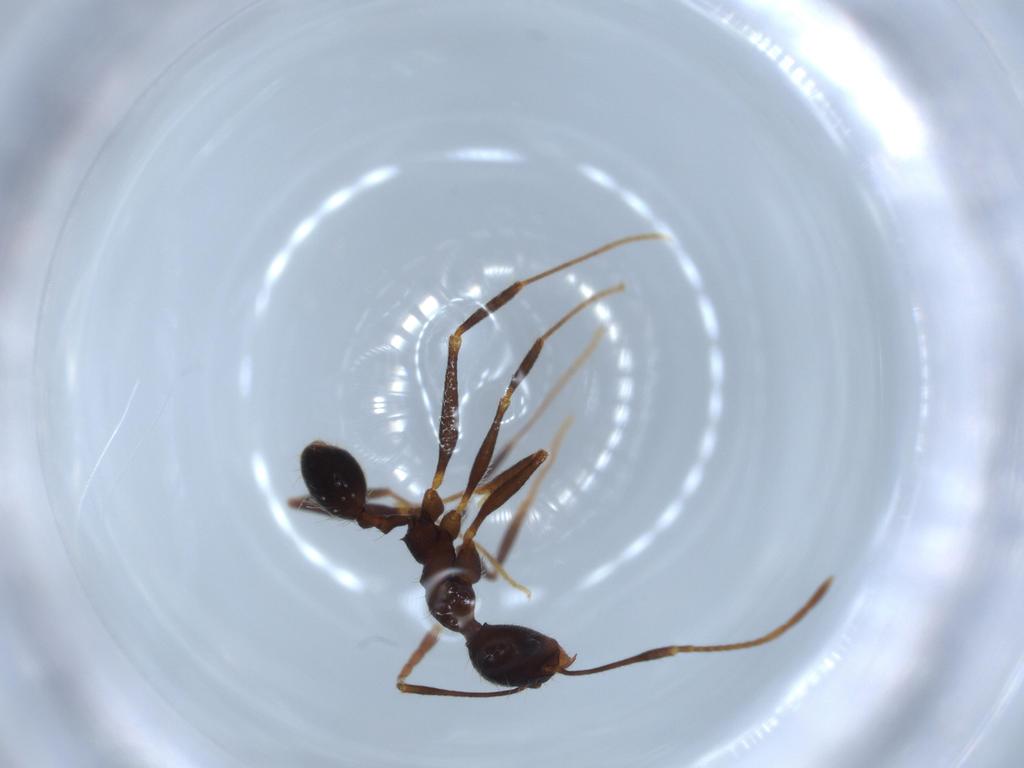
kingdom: Animalia
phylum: Arthropoda
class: Insecta
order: Hymenoptera
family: Formicidae
